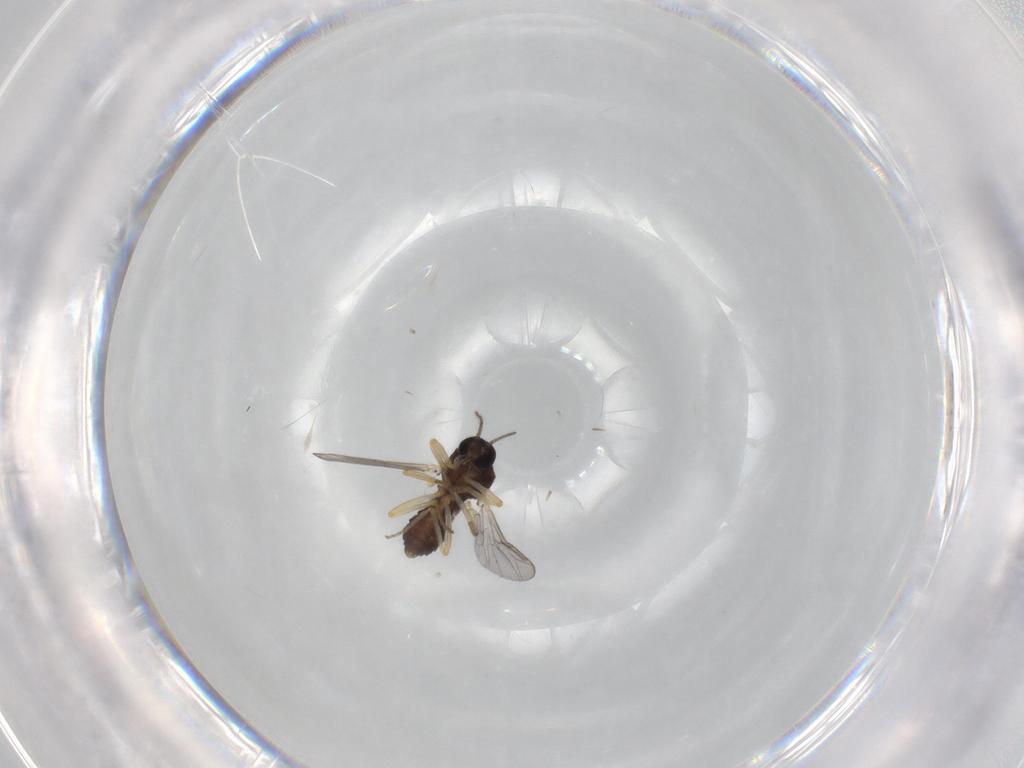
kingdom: Animalia
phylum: Arthropoda
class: Insecta
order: Diptera
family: Ceratopogonidae
